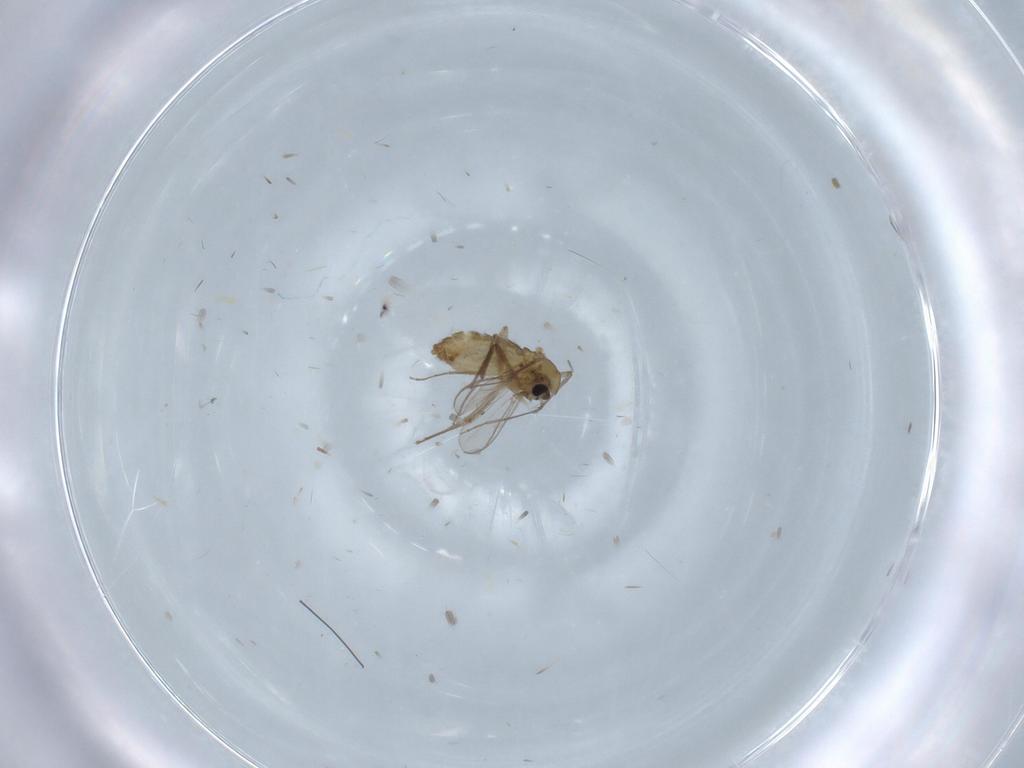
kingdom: Animalia
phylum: Arthropoda
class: Insecta
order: Diptera
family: Chironomidae
